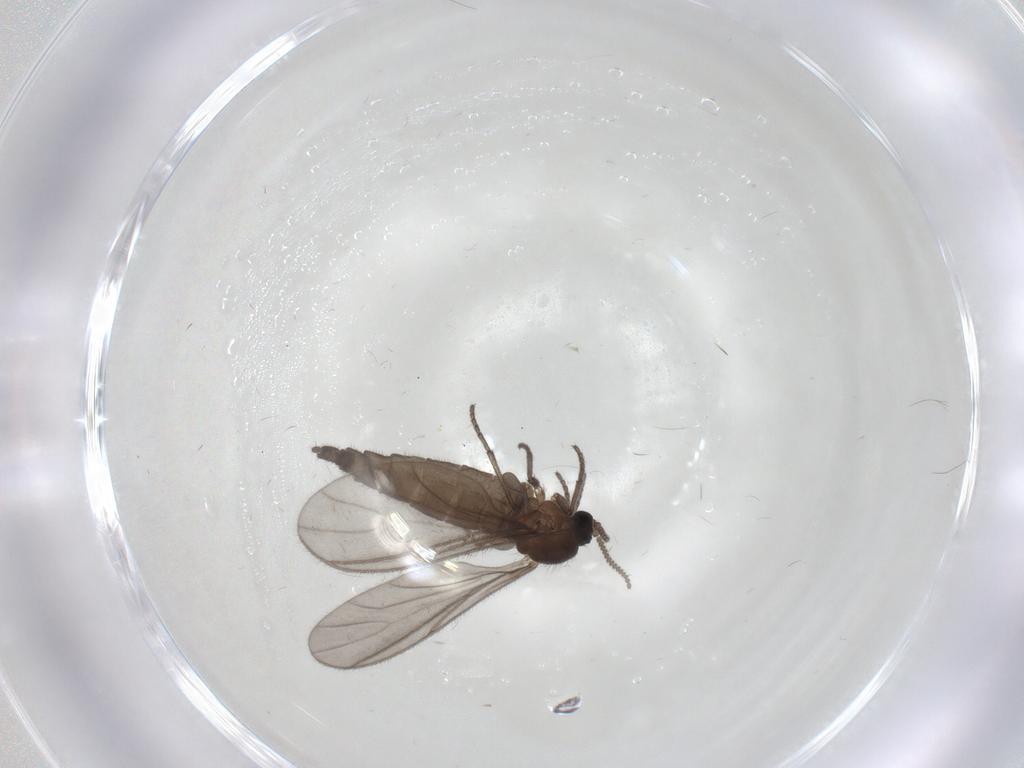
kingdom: Animalia
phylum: Arthropoda
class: Insecta
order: Diptera
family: Sciaridae
